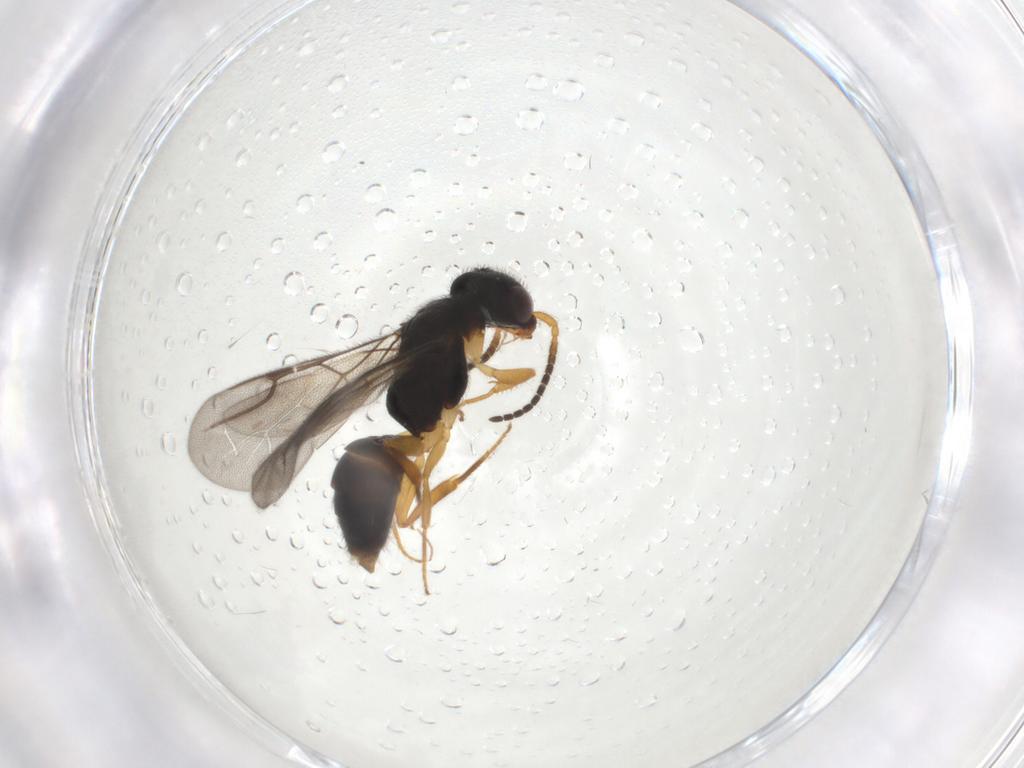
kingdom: Animalia
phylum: Arthropoda
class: Insecta
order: Hymenoptera
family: Bethylidae
